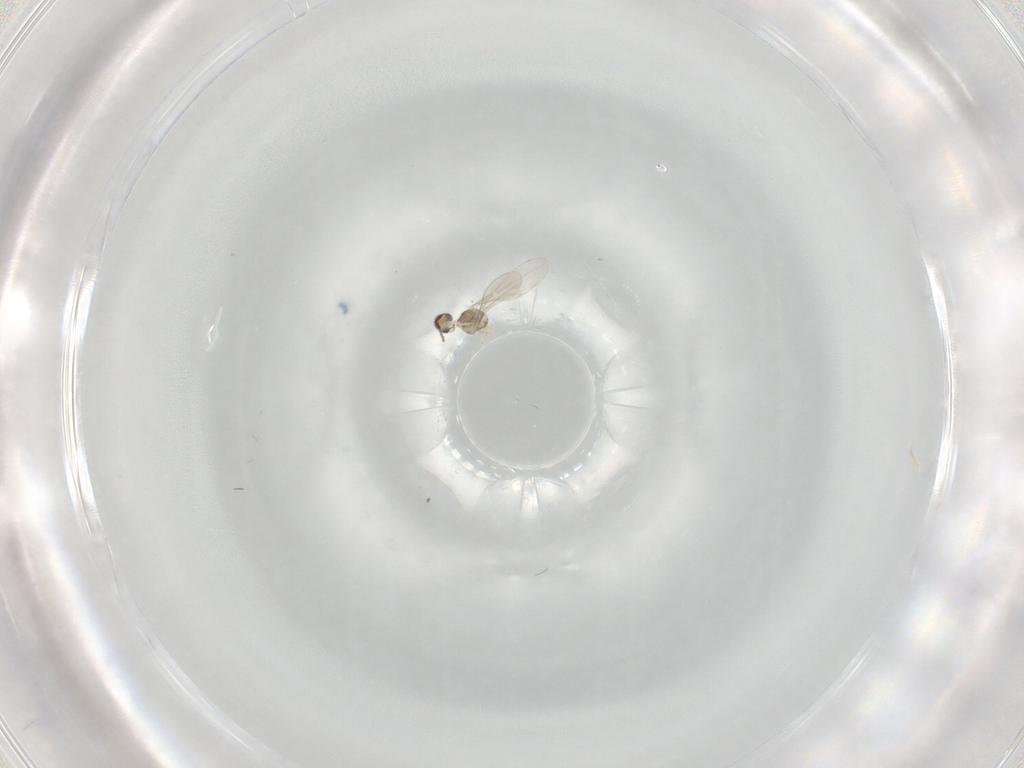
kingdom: Animalia
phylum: Arthropoda
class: Insecta
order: Diptera
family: Cecidomyiidae
